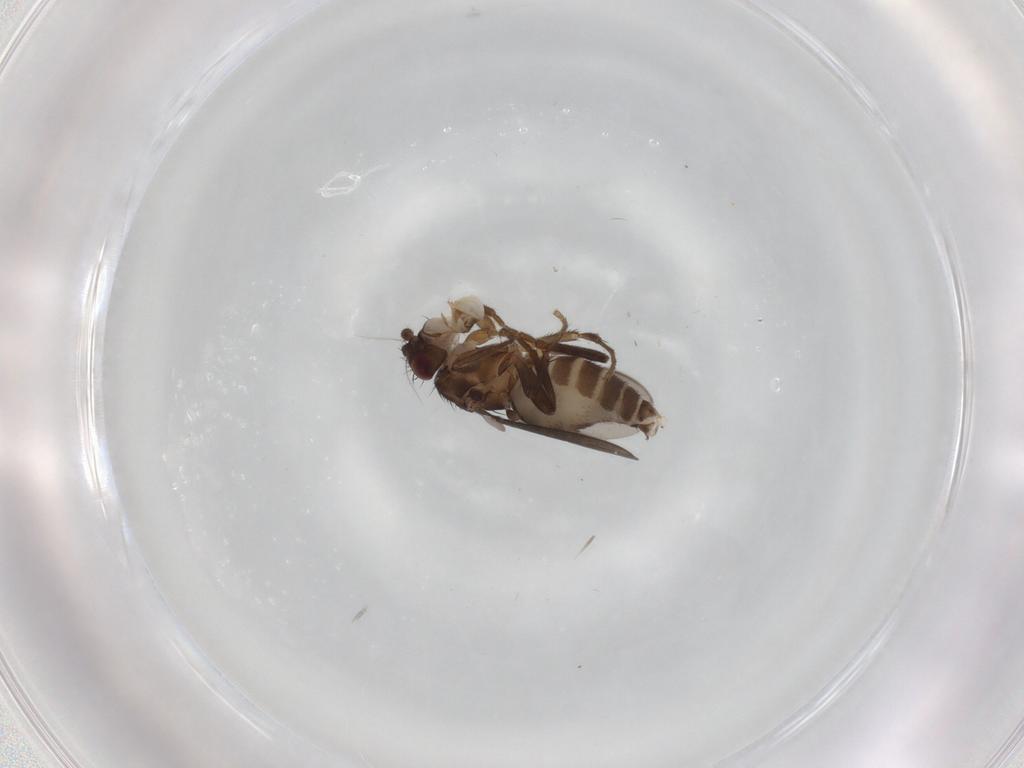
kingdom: Animalia
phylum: Arthropoda
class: Insecta
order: Diptera
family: Sphaeroceridae
